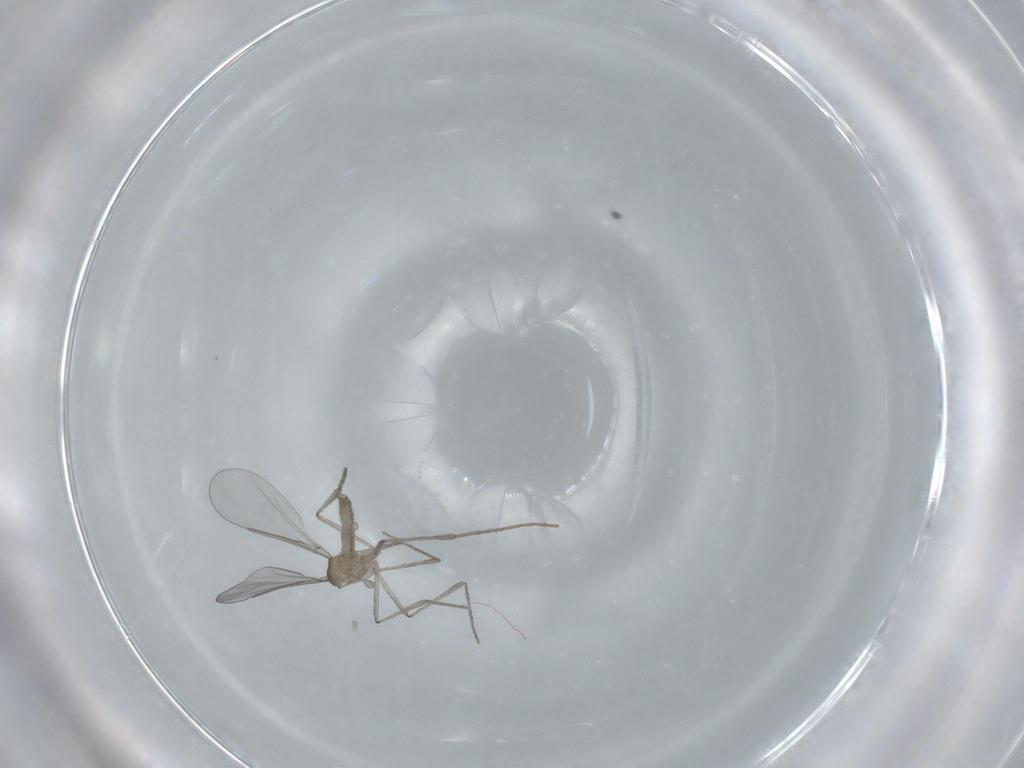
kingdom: Animalia
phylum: Arthropoda
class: Insecta
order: Diptera
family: Cecidomyiidae
